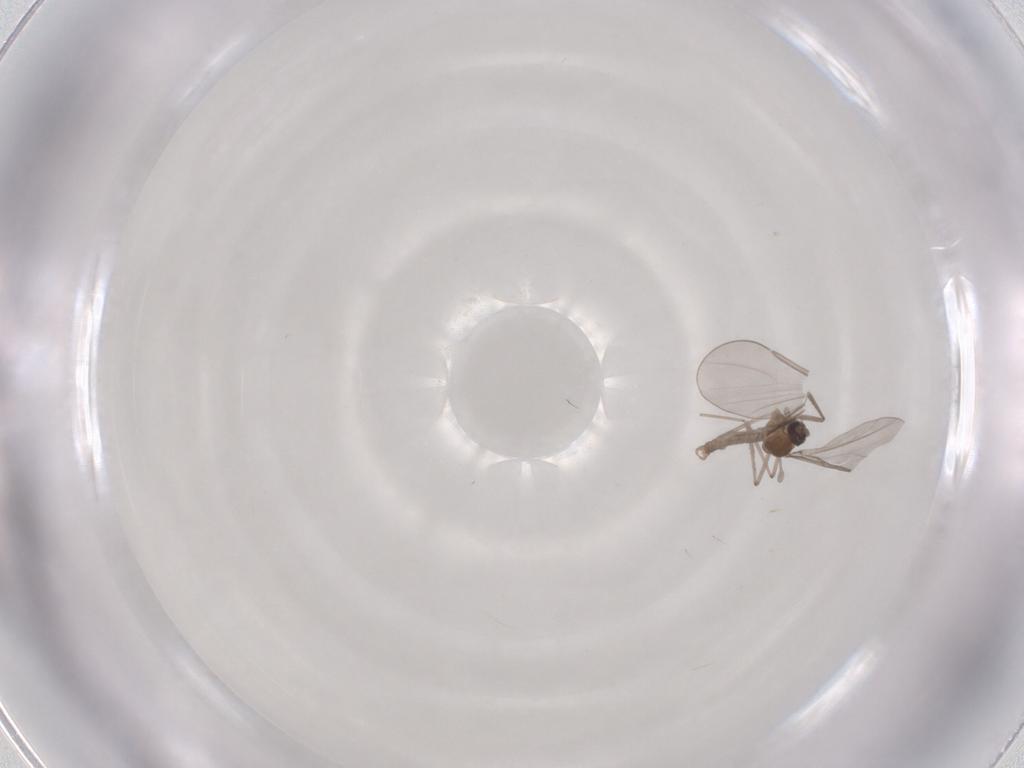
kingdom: Animalia
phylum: Arthropoda
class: Insecta
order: Diptera
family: Cecidomyiidae
